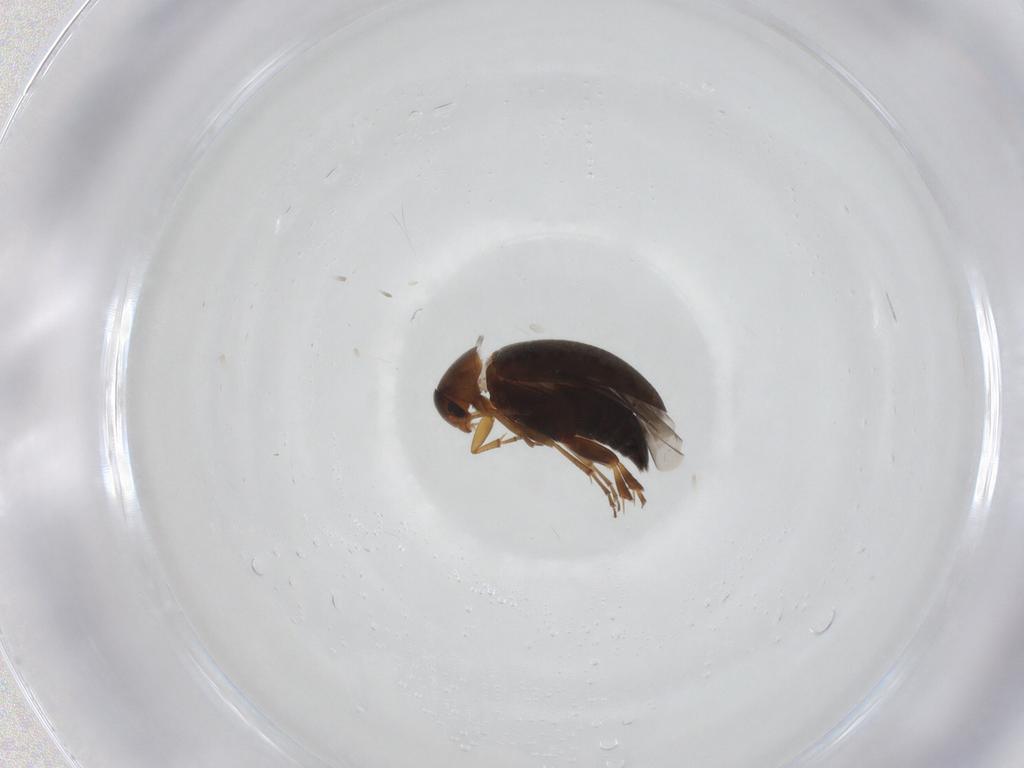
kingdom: Animalia
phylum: Arthropoda
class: Insecta
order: Coleoptera
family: Scraptiidae
